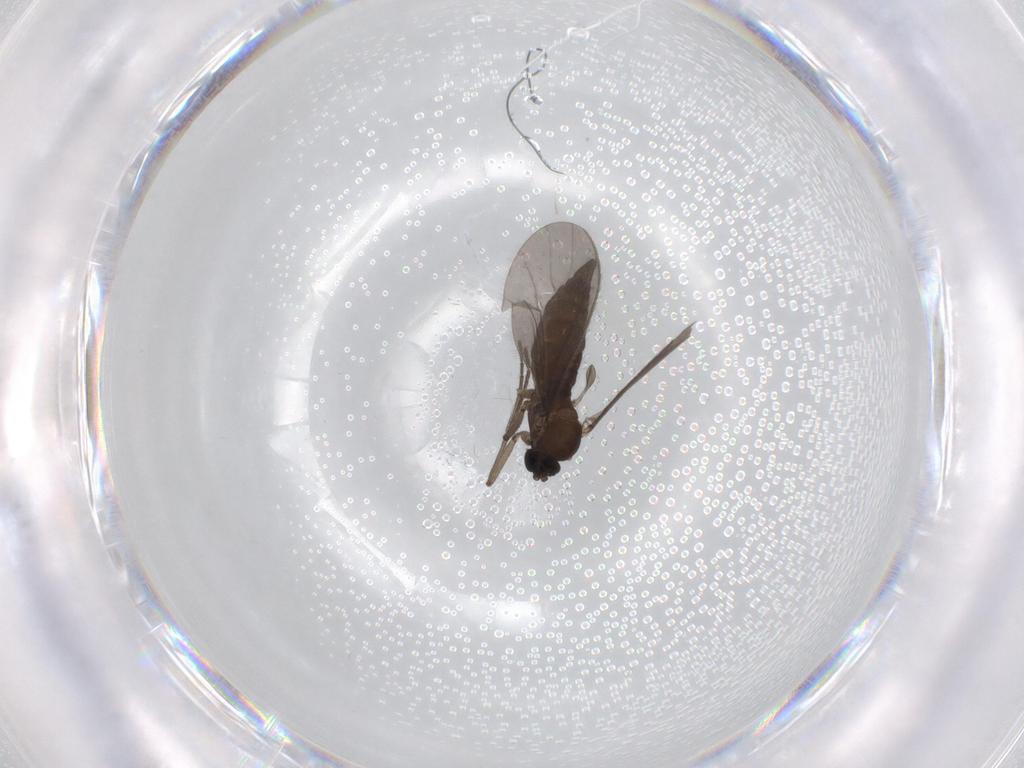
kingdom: Animalia
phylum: Arthropoda
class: Insecta
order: Diptera
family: Sciaridae
